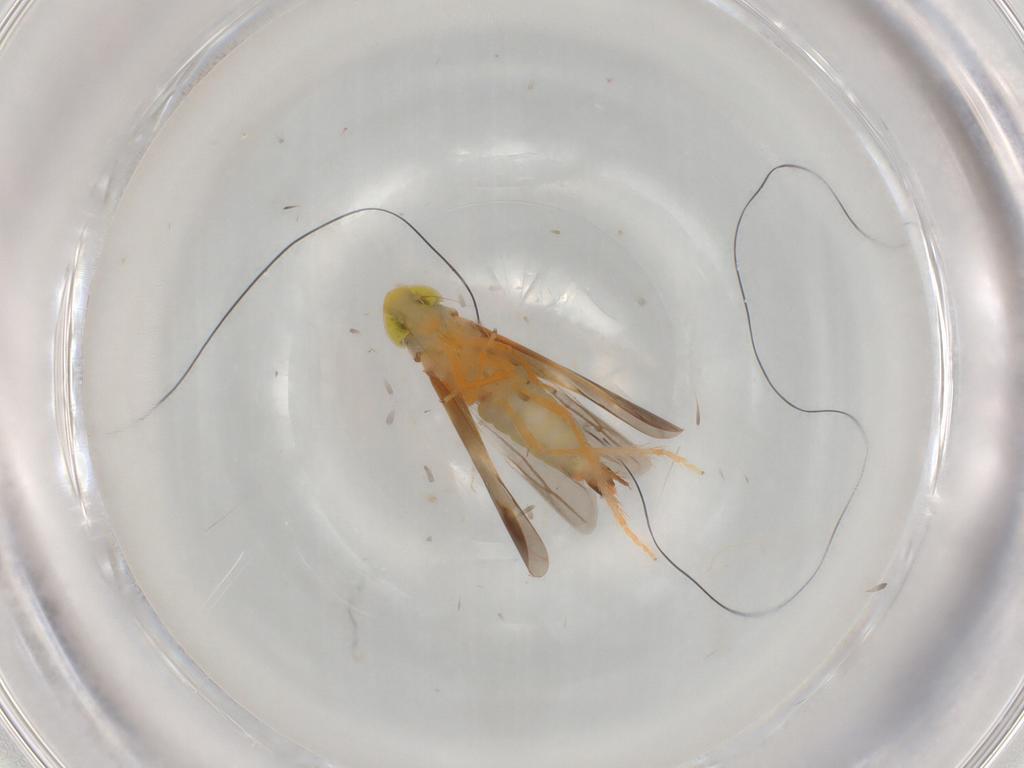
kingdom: Animalia
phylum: Arthropoda
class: Insecta
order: Hemiptera
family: Cicadellidae
